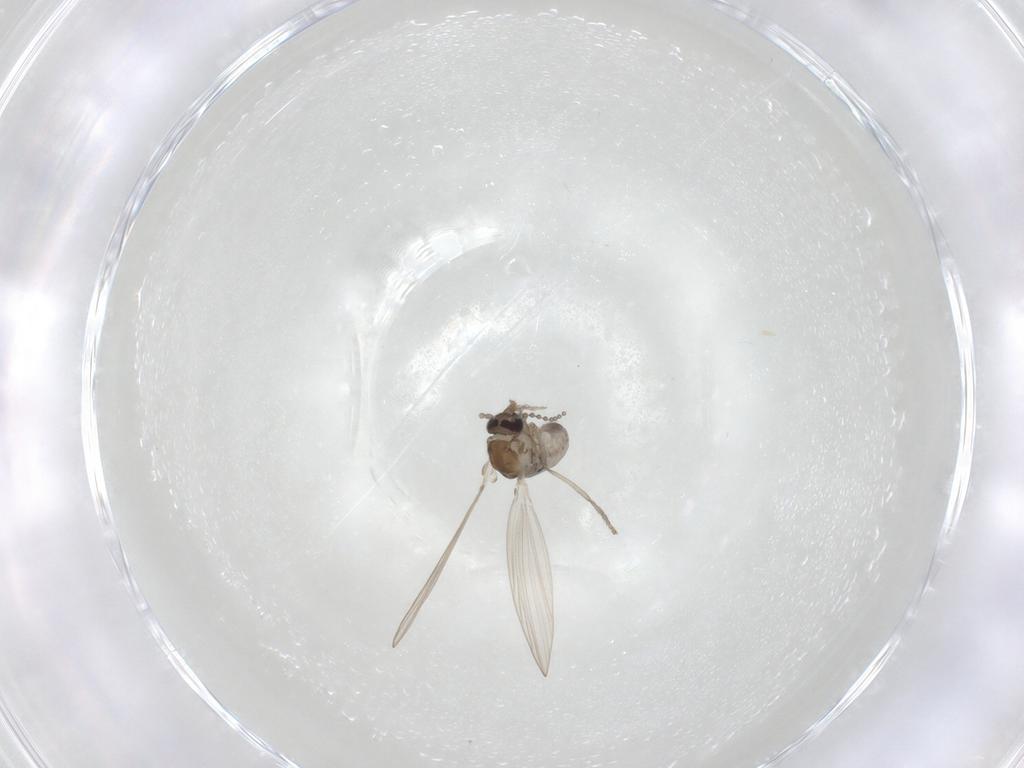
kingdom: Animalia
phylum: Arthropoda
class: Insecta
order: Diptera
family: Psychodidae
